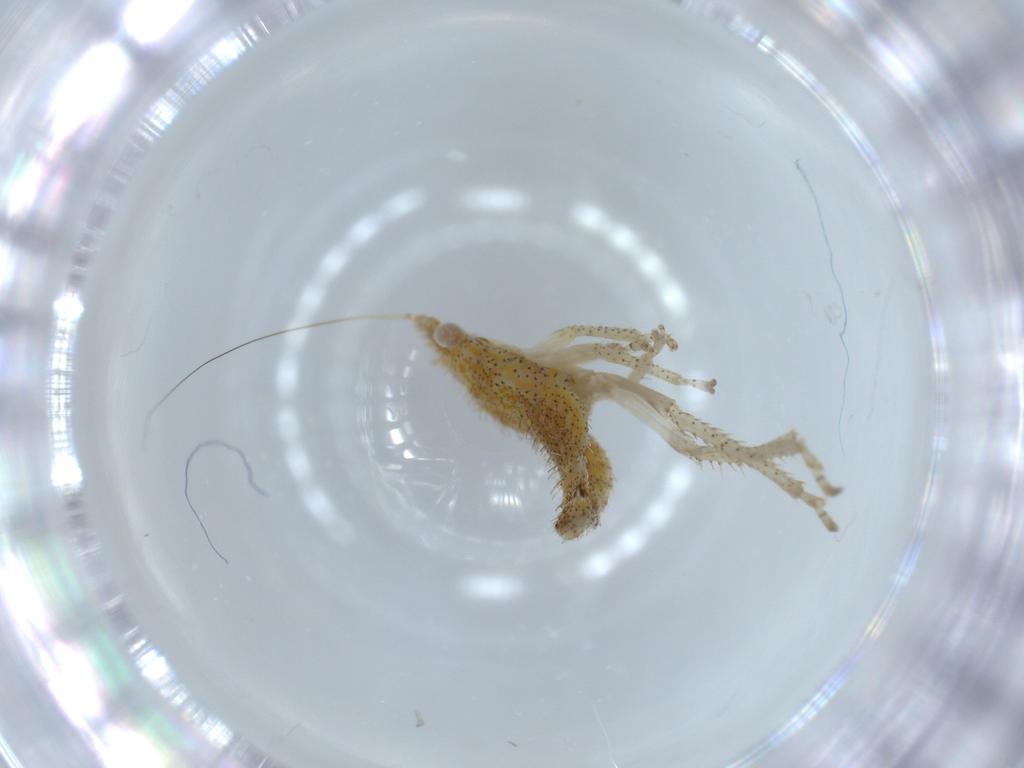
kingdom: Animalia
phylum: Arthropoda
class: Insecta
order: Hemiptera
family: Cicadellidae
